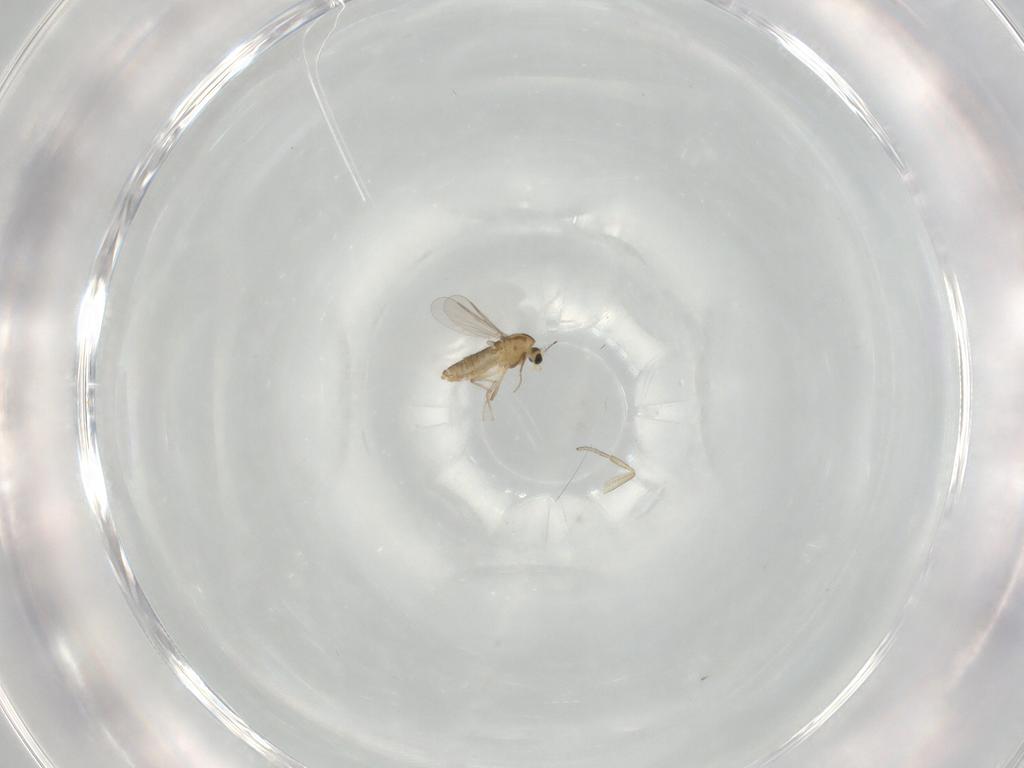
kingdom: Animalia
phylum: Arthropoda
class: Insecta
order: Diptera
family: Chironomidae
